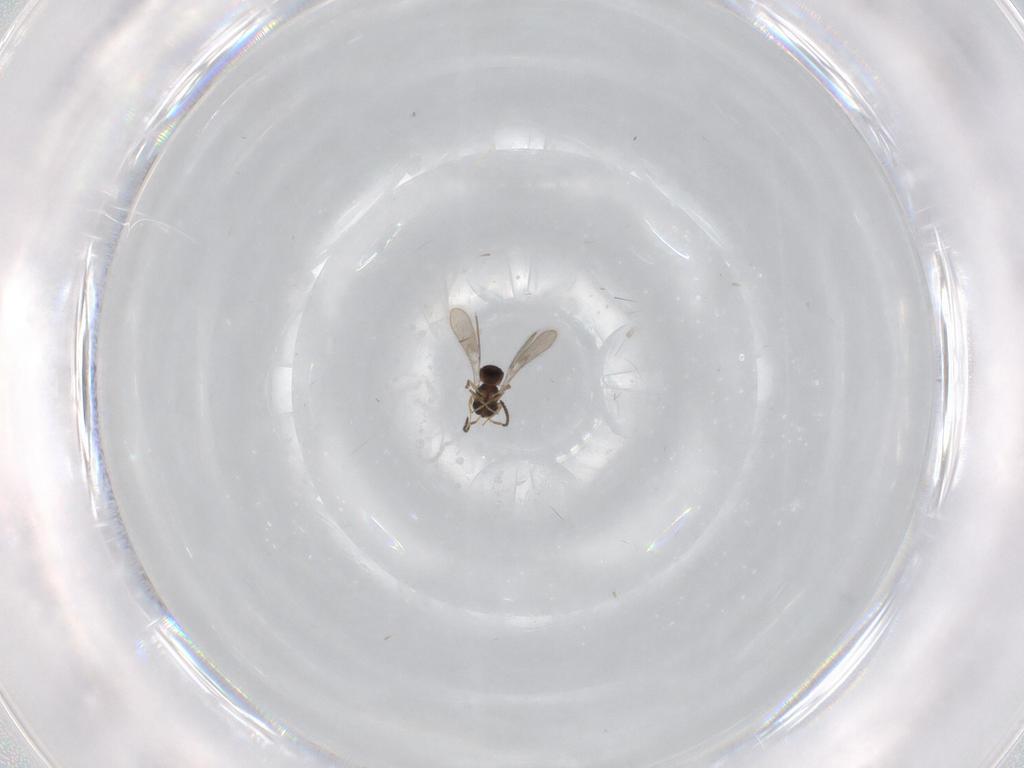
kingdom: Animalia
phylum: Arthropoda
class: Insecta
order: Hymenoptera
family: Scelionidae
